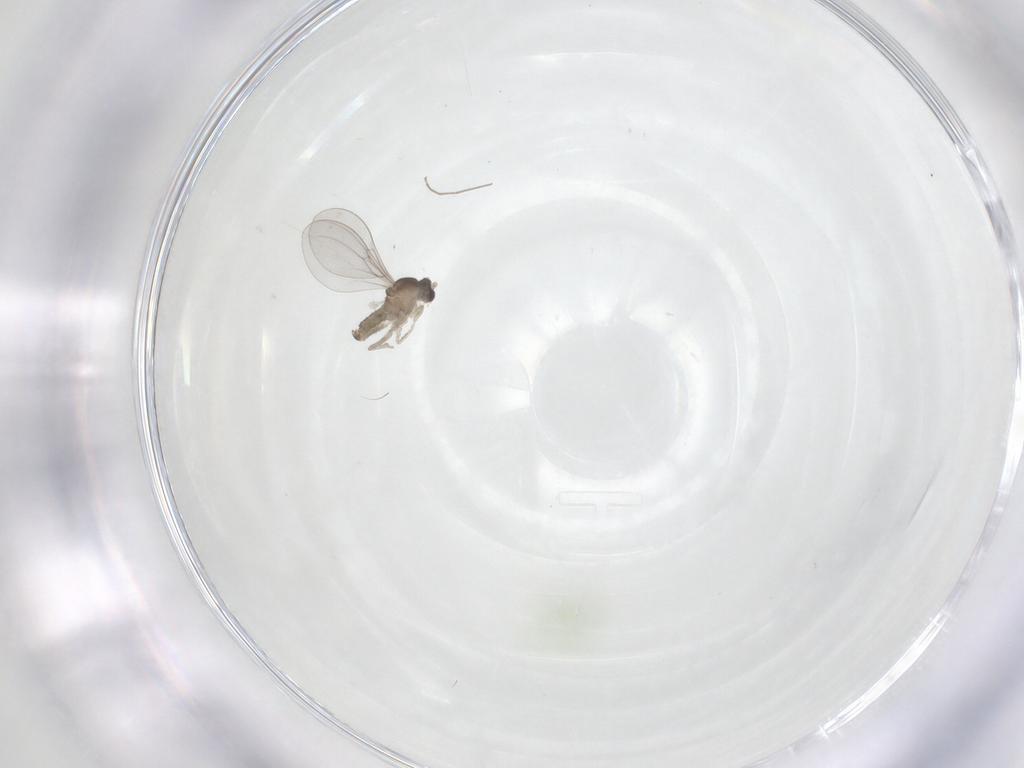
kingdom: Animalia
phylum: Arthropoda
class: Insecta
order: Diptera
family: Cecidomyiidae
